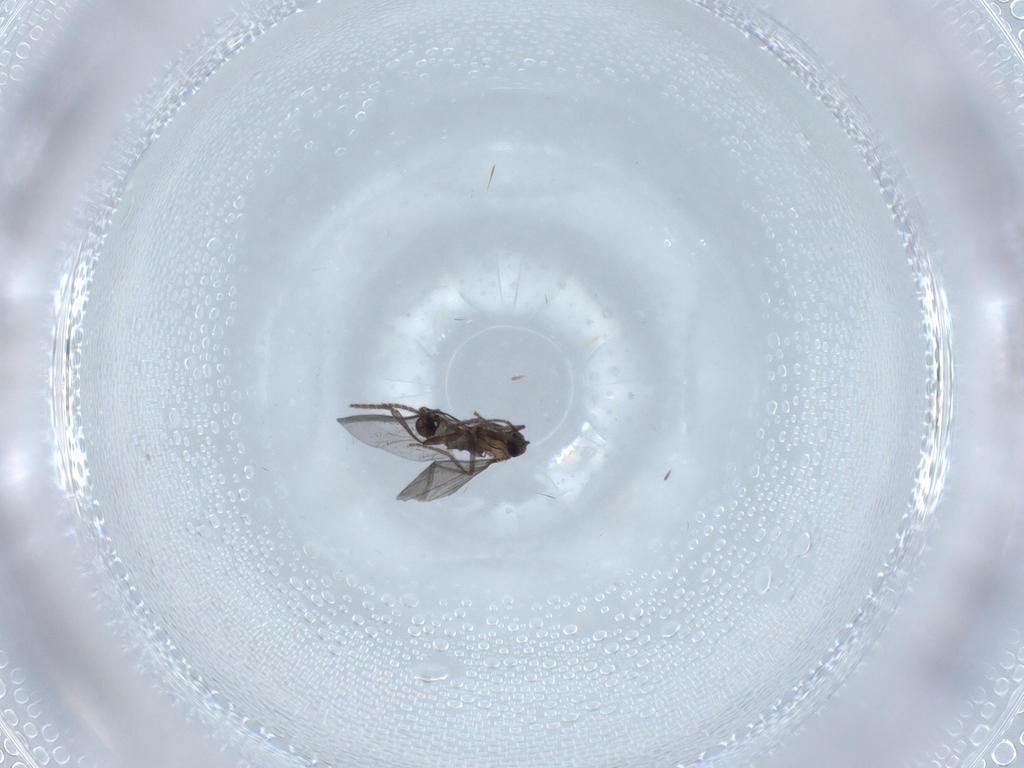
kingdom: Animalia
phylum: Arthropoda
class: Insecta
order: Diptera
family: Phoridae
